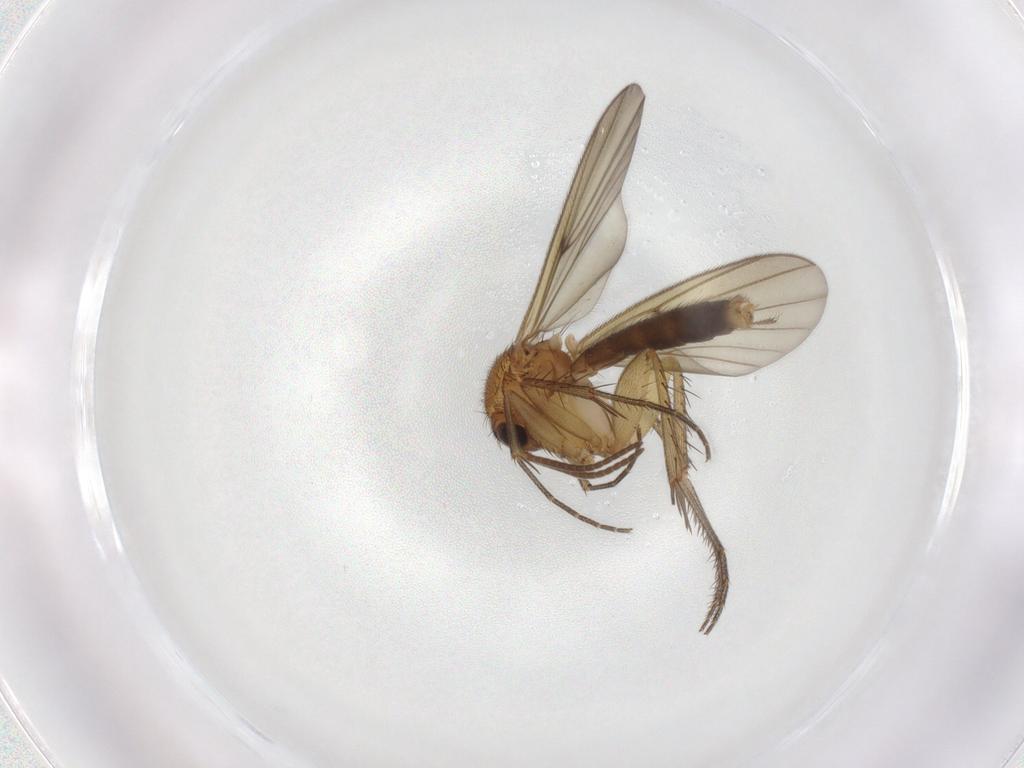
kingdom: Animalia
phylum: Arthropoda
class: Insecta
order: Diptera
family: Mycetophilidae
